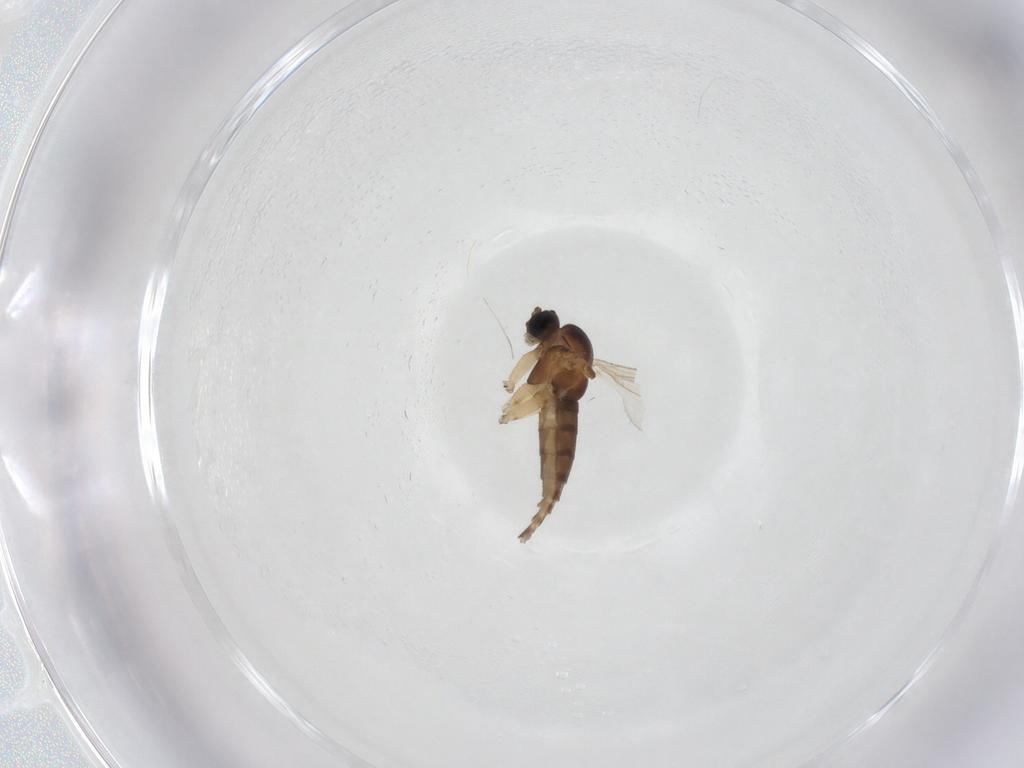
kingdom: Animalia
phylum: Arthropoda
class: Insecta
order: Diptera
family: Sciaridae
